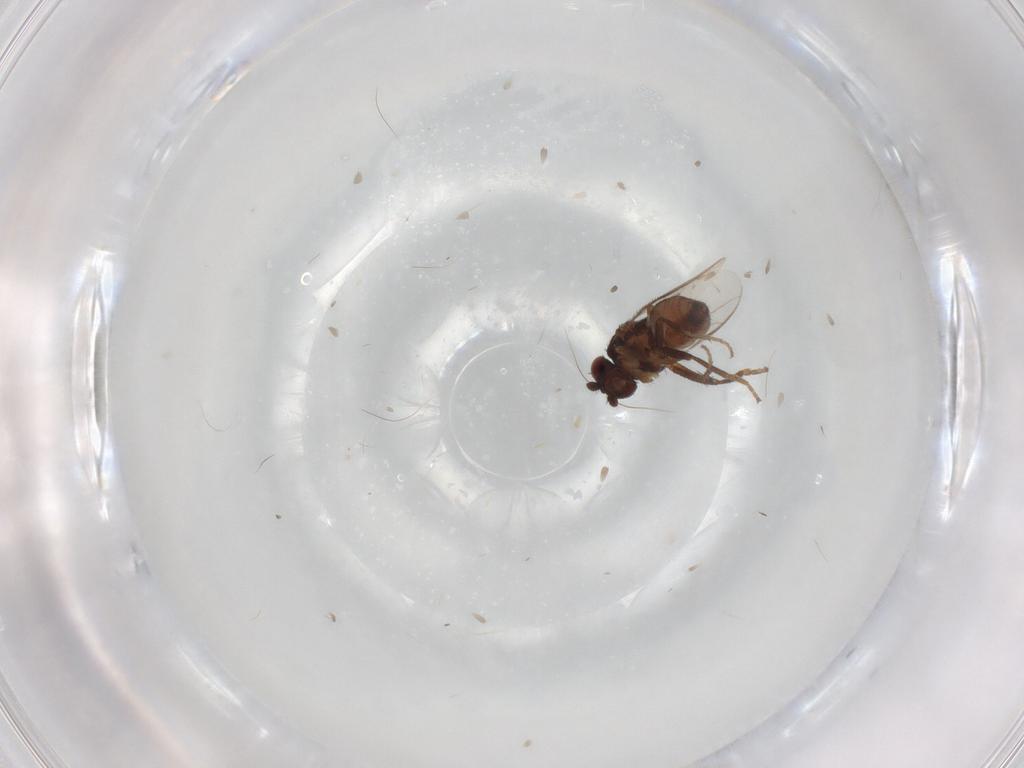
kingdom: Animalia
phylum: Arthropoda
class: Insecta
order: Diptera
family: Sphaeroceridae
